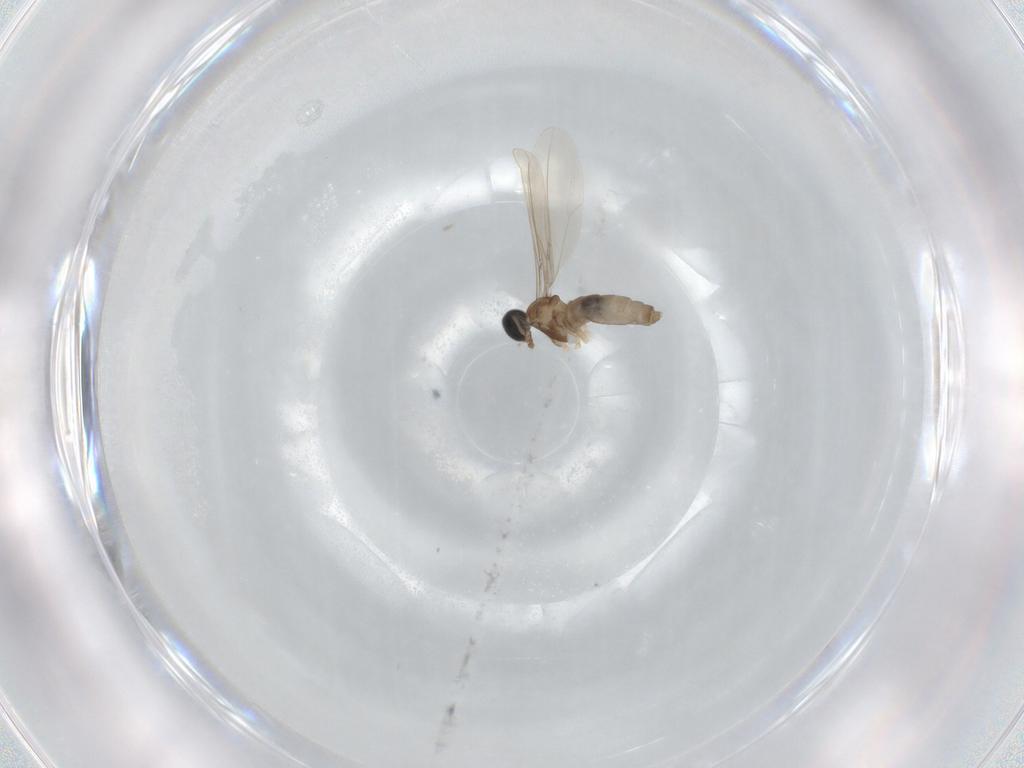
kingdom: Animalia
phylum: Arthropoda
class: Insecta
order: Diptera
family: Cecidomyiidae
